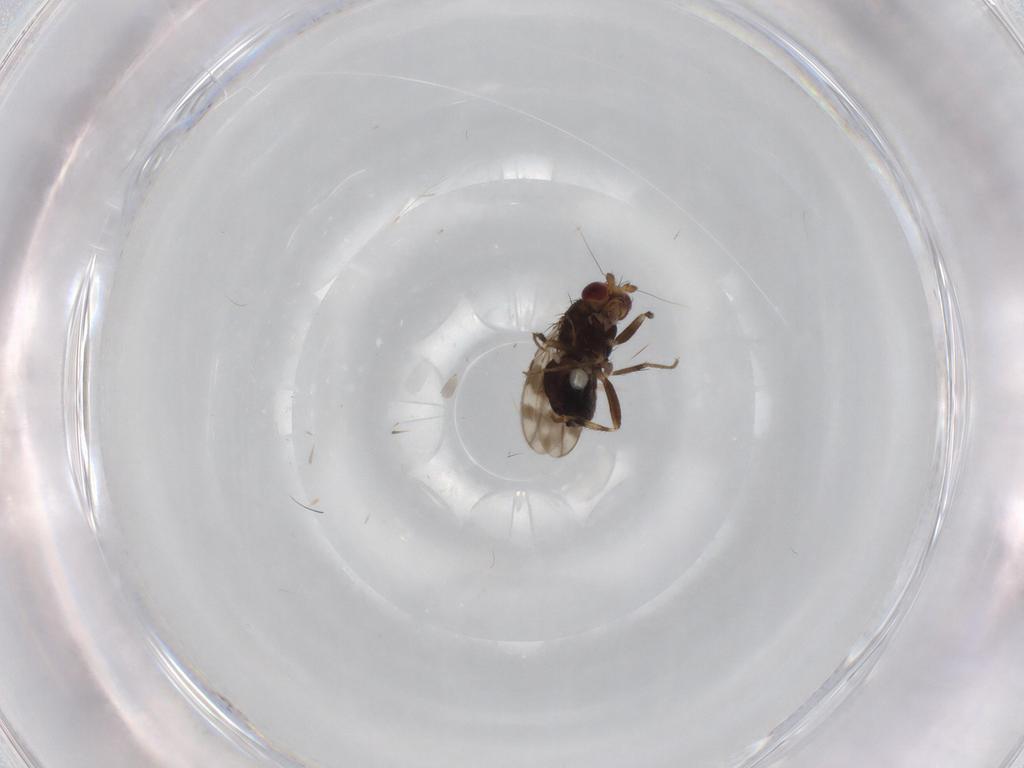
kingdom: Animalia
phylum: Arthropoda
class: Insecta
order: Diptera
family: Sphaeroceridae
